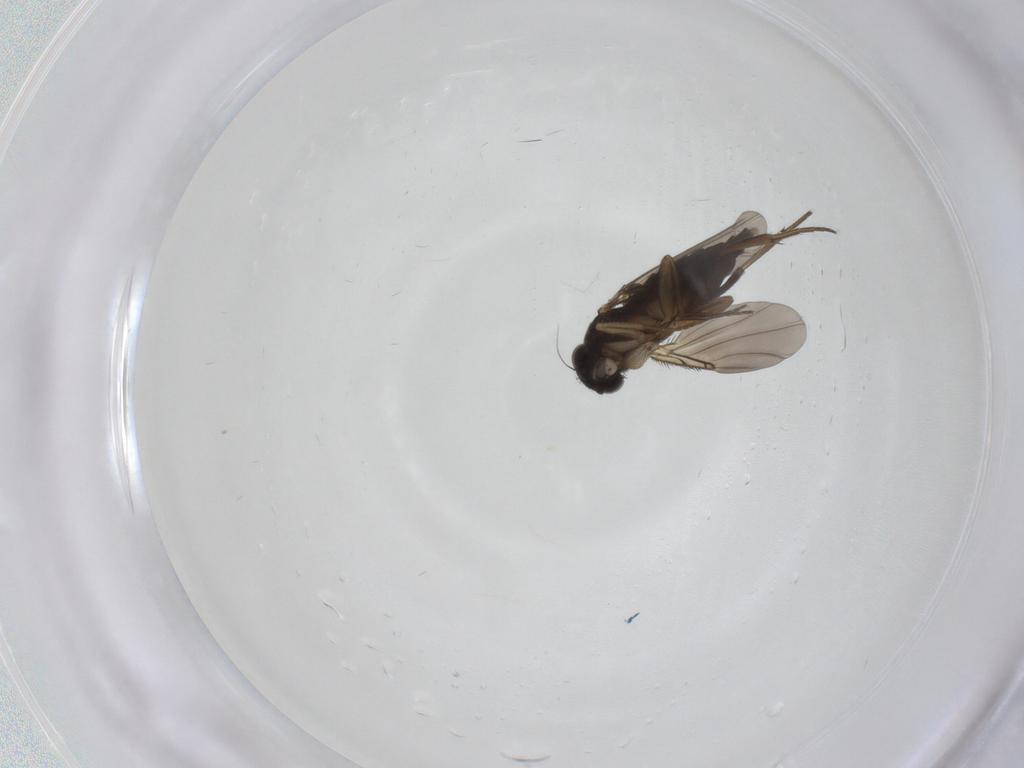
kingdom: Animalia
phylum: Arthropoda
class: Insecta
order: Diptera
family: Phoridae
